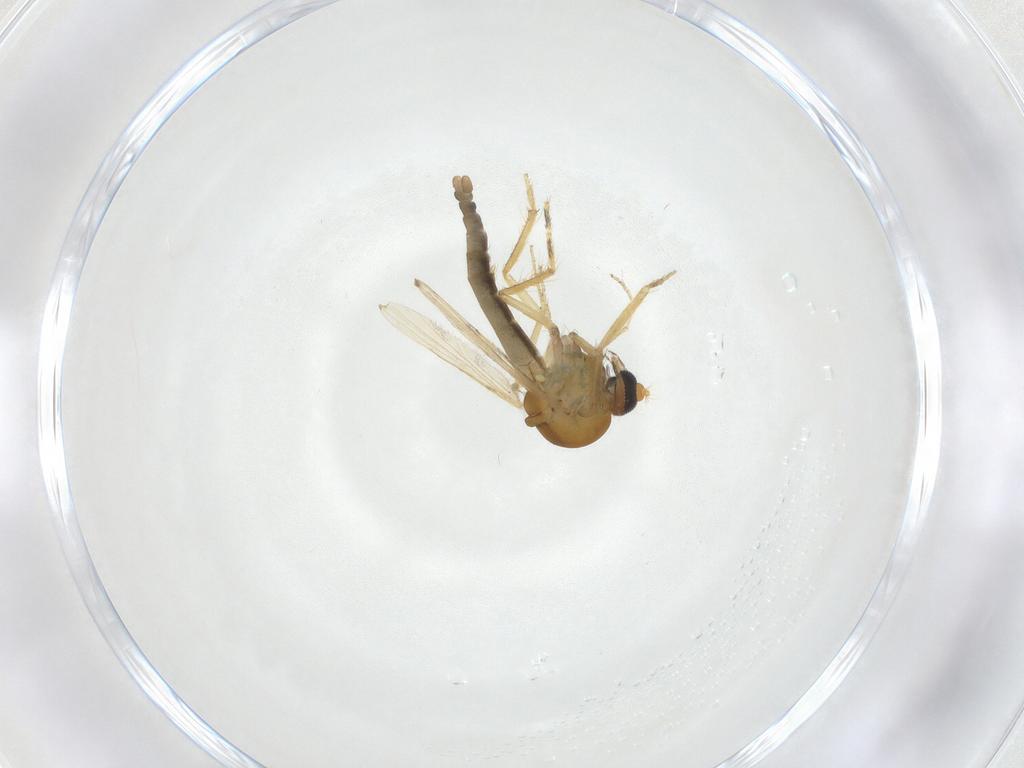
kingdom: Animalia
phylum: Arthropoda
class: Insecta
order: Diptera
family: Ceratopogonidae
